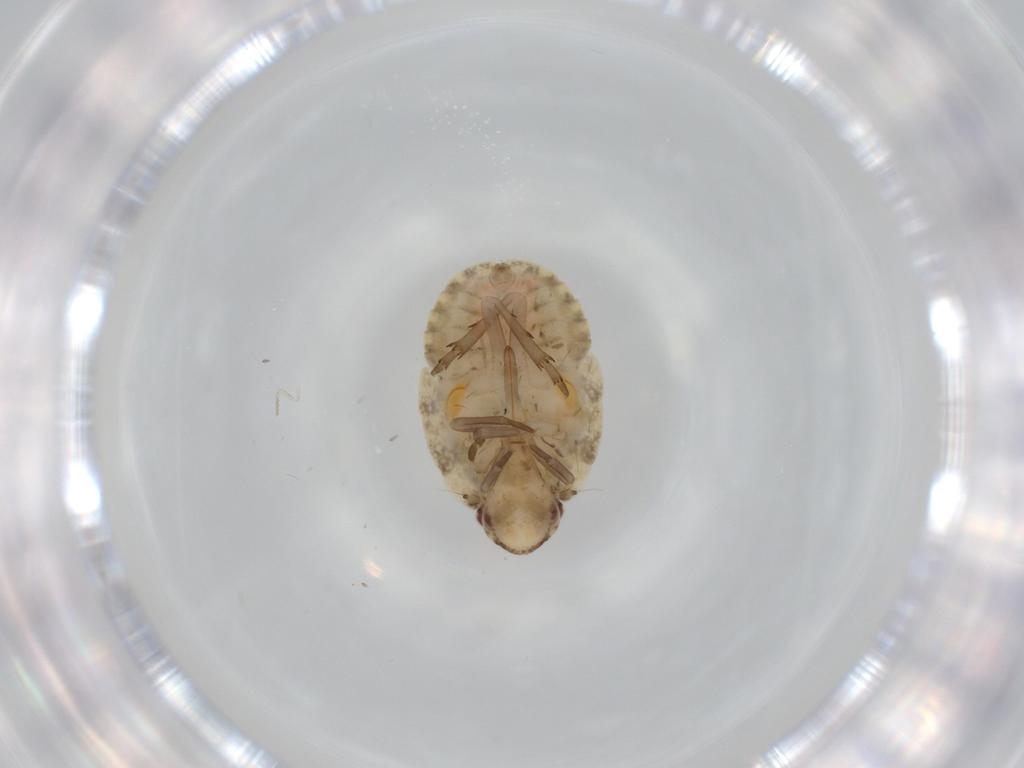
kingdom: Animalia
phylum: Arthropoda
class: Insecta
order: Hemiptera
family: Flatidae
